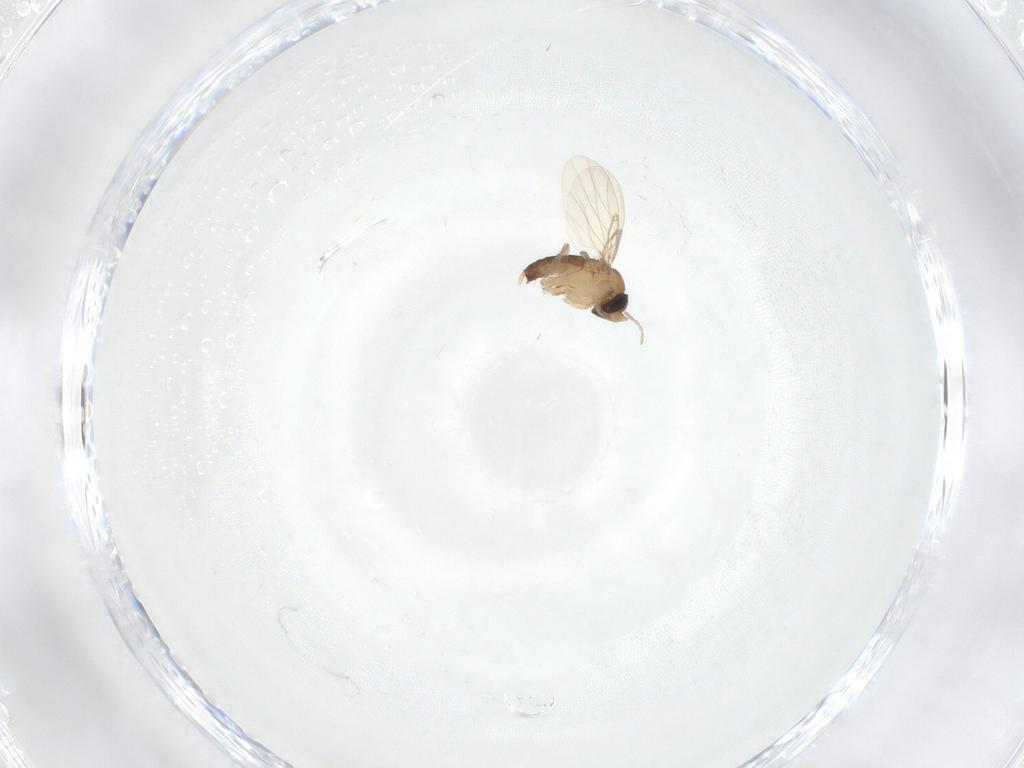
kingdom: Animalia
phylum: Arthropoda
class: Insecta
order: Diptera
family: Phoridae
